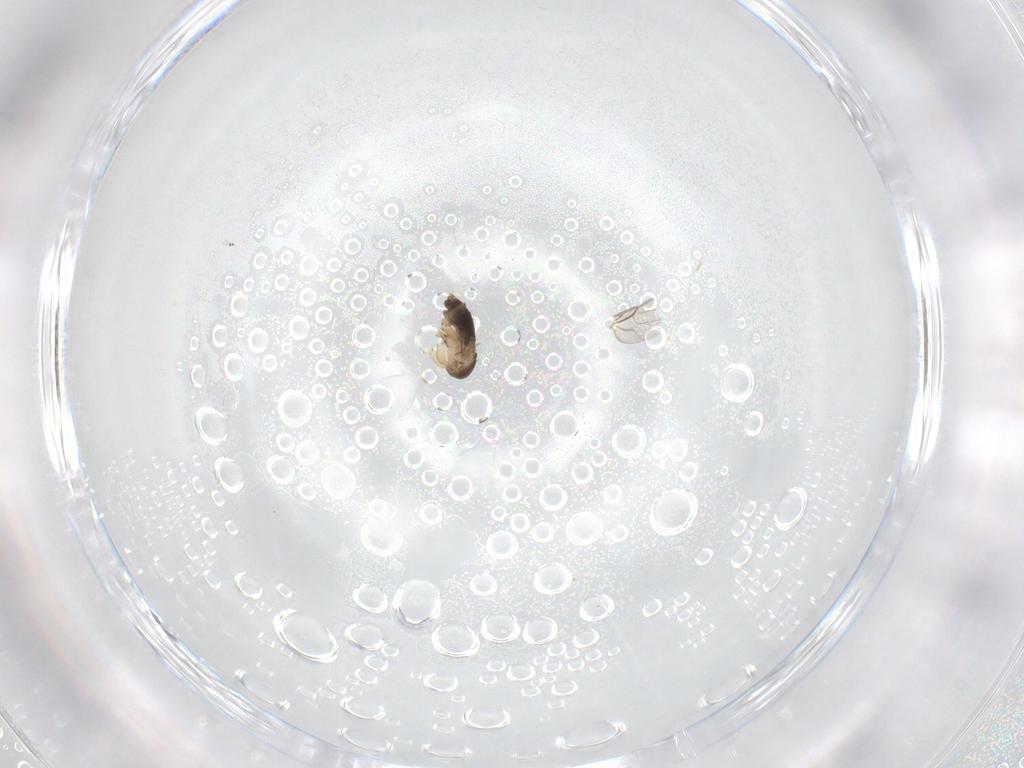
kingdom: Animalia
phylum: Arthropoda
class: Insecta
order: Diptera
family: Phoridae
